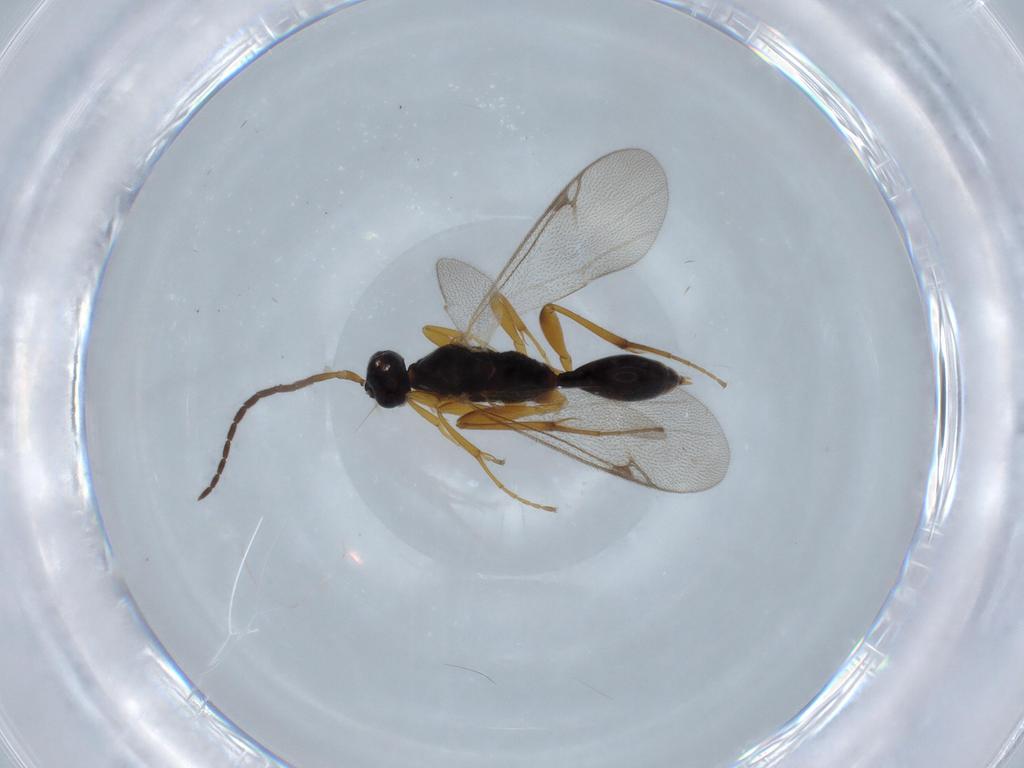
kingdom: Animalia
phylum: Arthropoda
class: Insecta
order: Hymenoptera
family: Proctotrupidae
